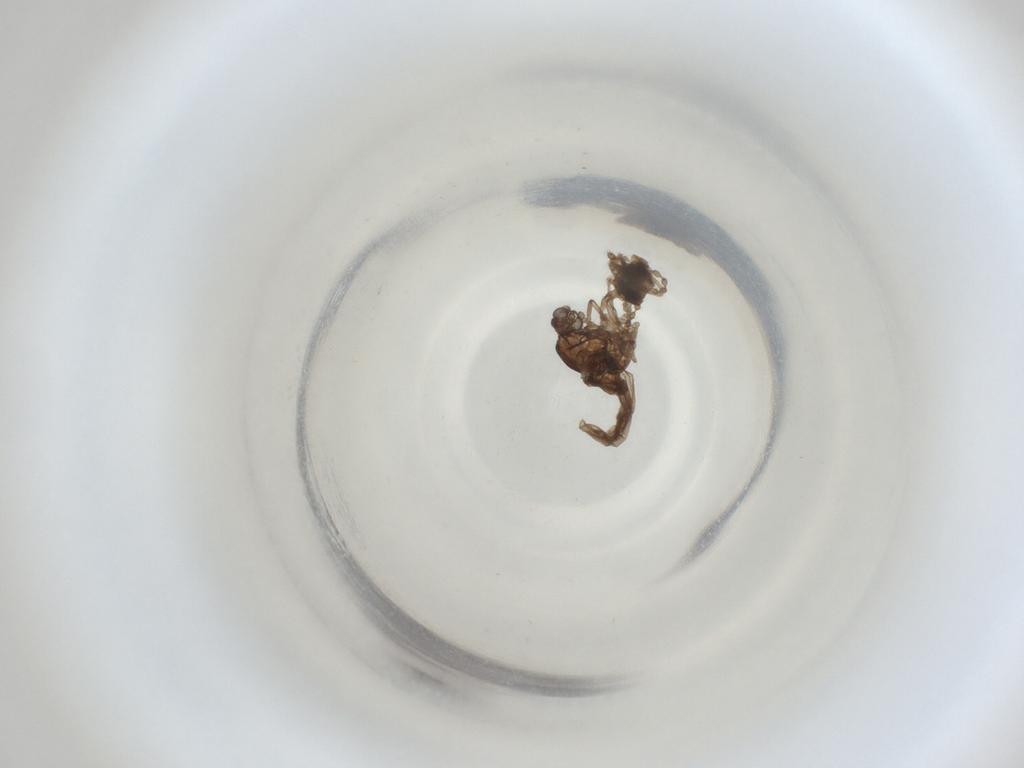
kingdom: Animalia
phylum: Arthropoda
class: Insecta
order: Diptera
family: Cecidomyiidae
